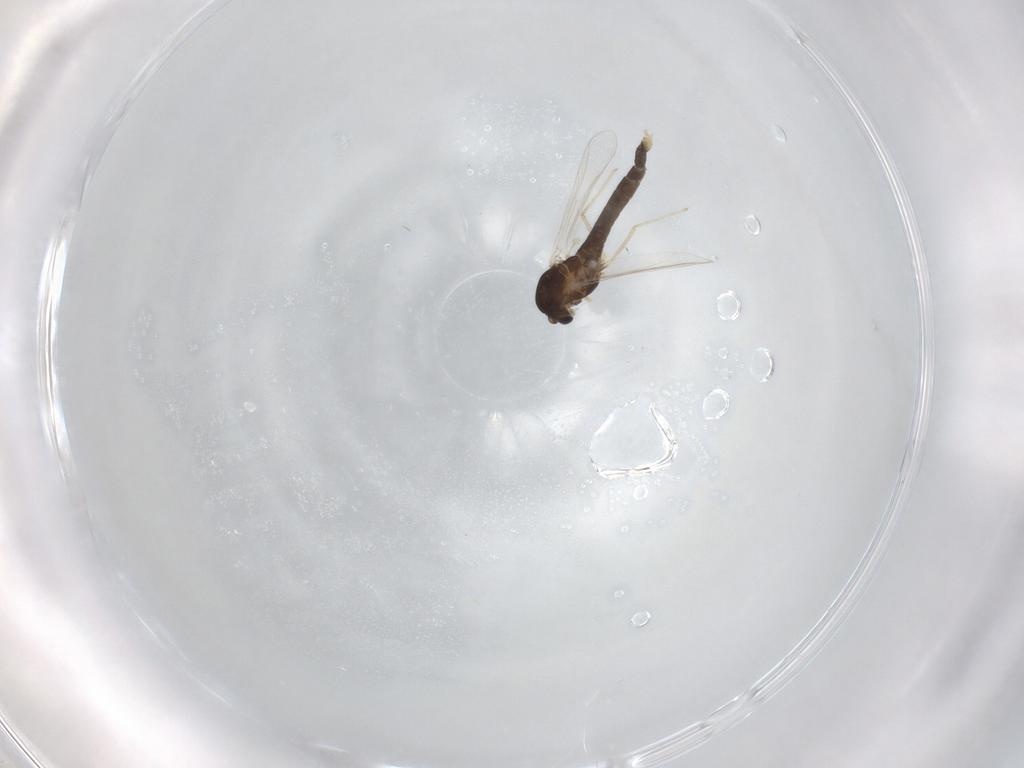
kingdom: Animalia
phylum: Arthropoda
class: Insecta
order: Diptera
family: Chironomidae
